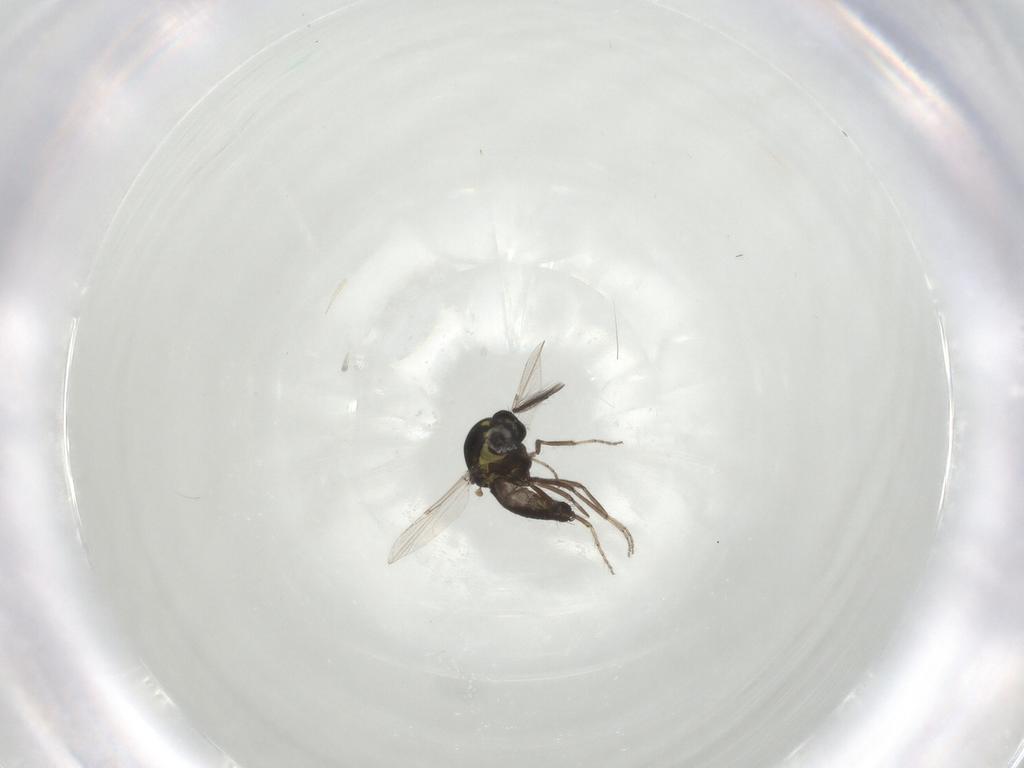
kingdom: Animalia
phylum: Arthropoda
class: Insecta
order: Diptera
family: Ceratopogonidae
